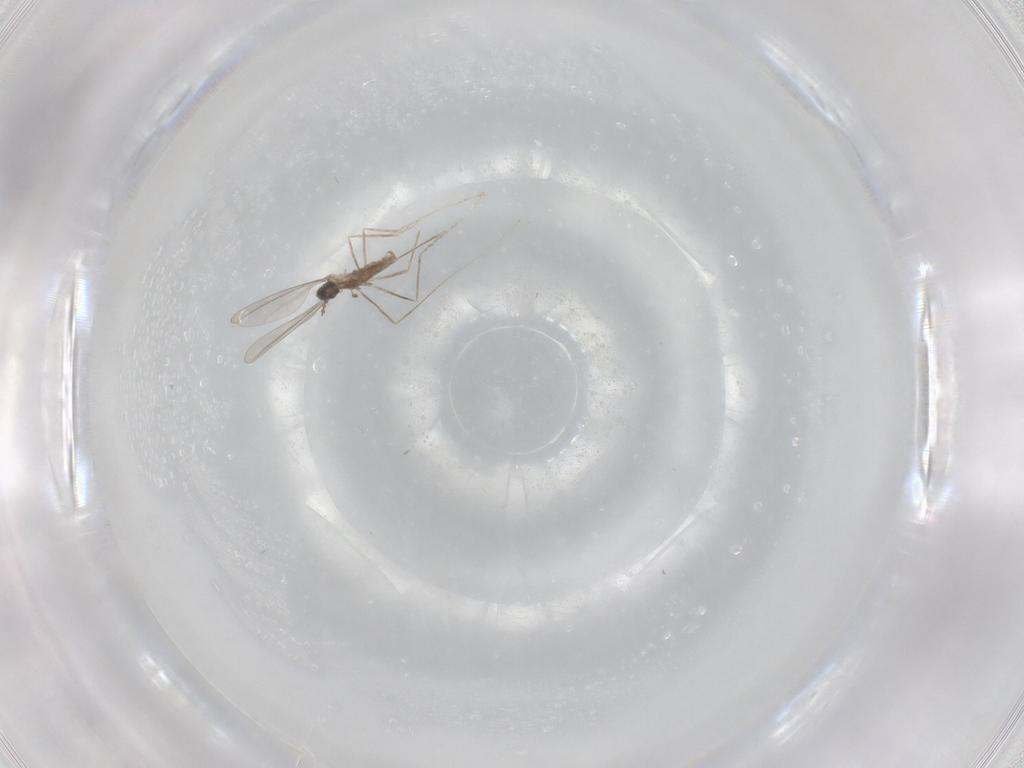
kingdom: Animalia
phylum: Arthropoda
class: Insecta
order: Diptera
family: Cecidomyiidae
